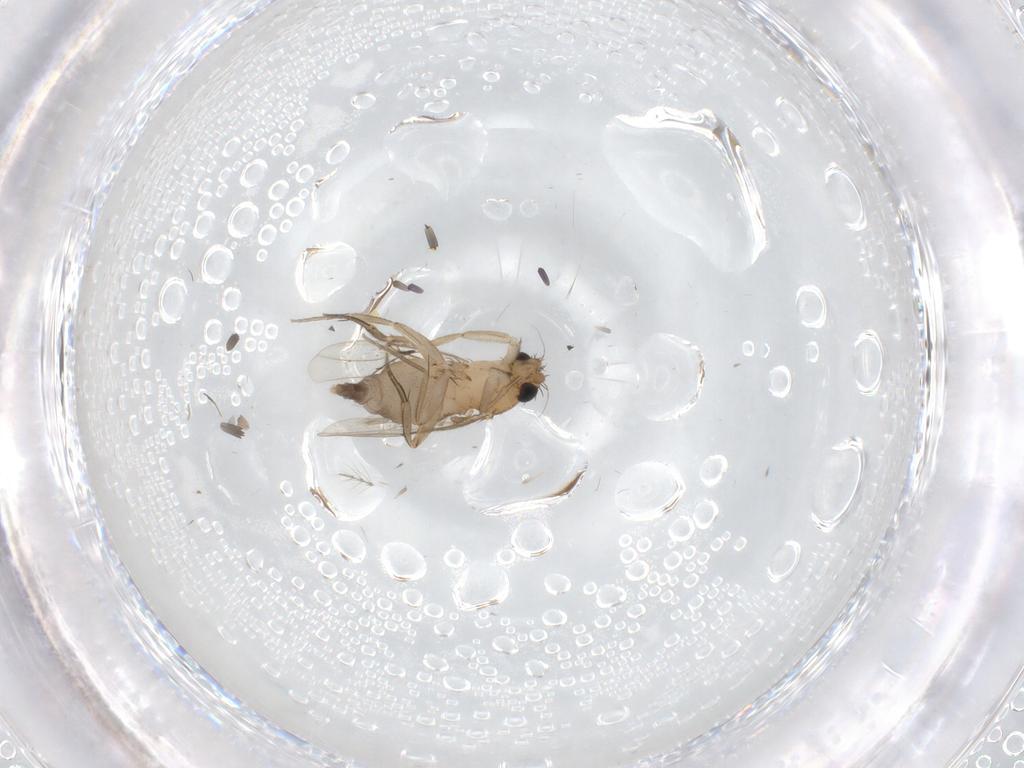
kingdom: Animalia
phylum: Arthropoda
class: Insecta
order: Diptera
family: Phoridae
